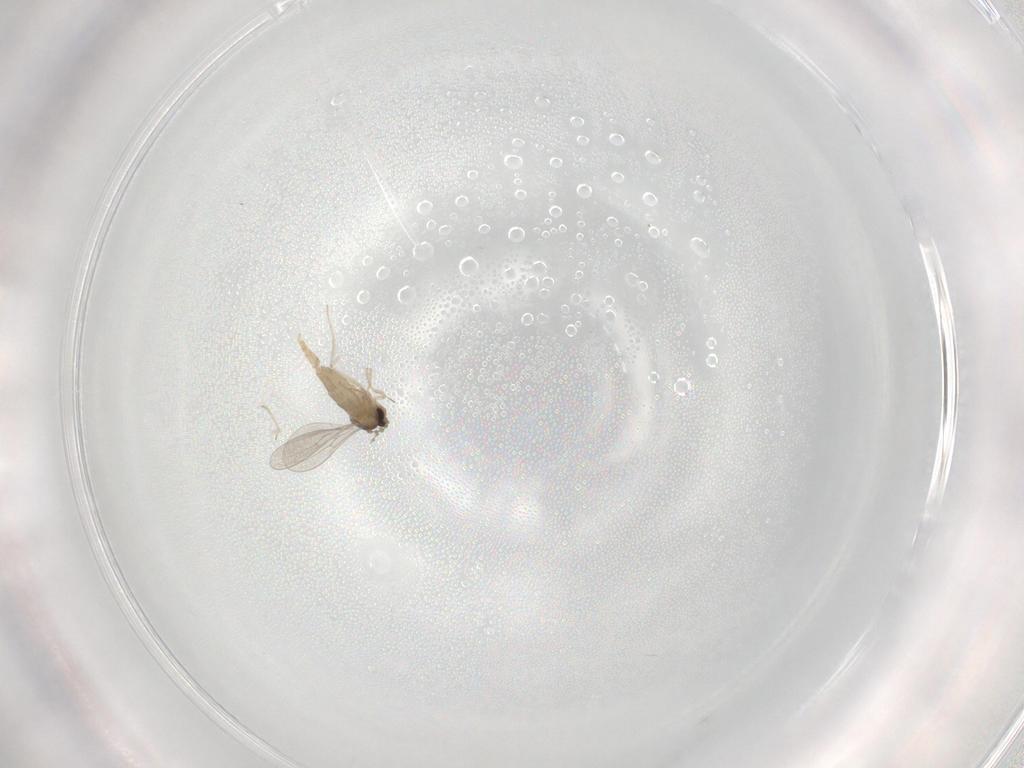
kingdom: Animalia
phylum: Arthropoda
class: Insecta
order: Diptera
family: Cecidomyiidae
